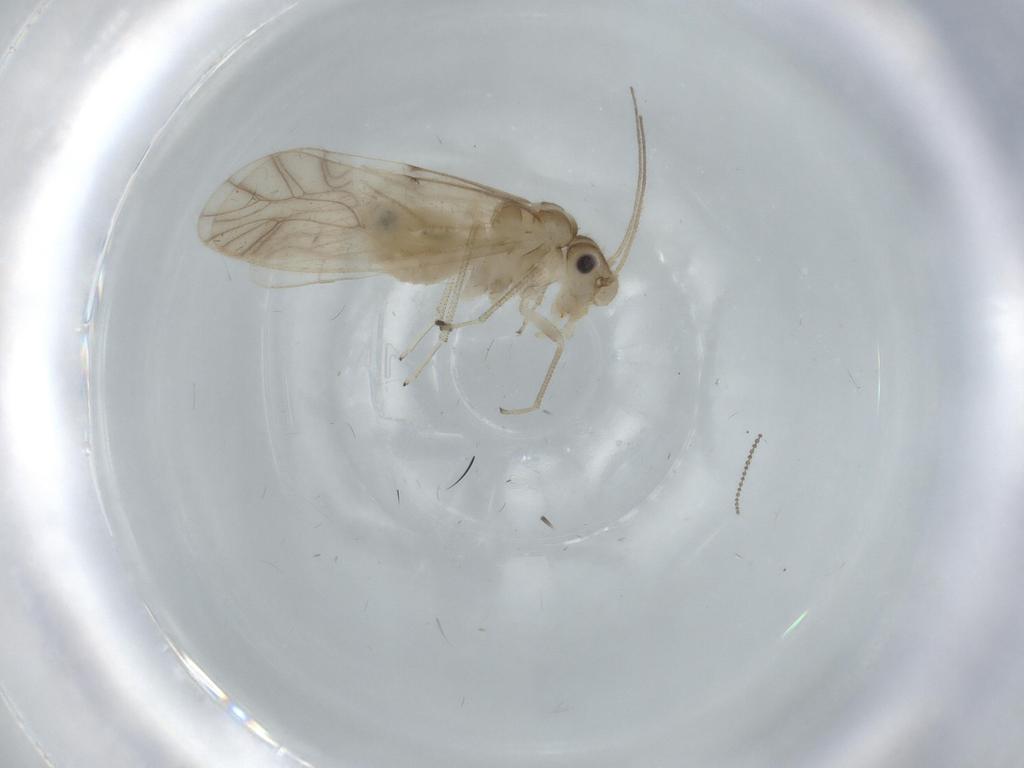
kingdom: Animalia
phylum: Arthropoda
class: Insecta
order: Psocodea
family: Caeciliusidae
